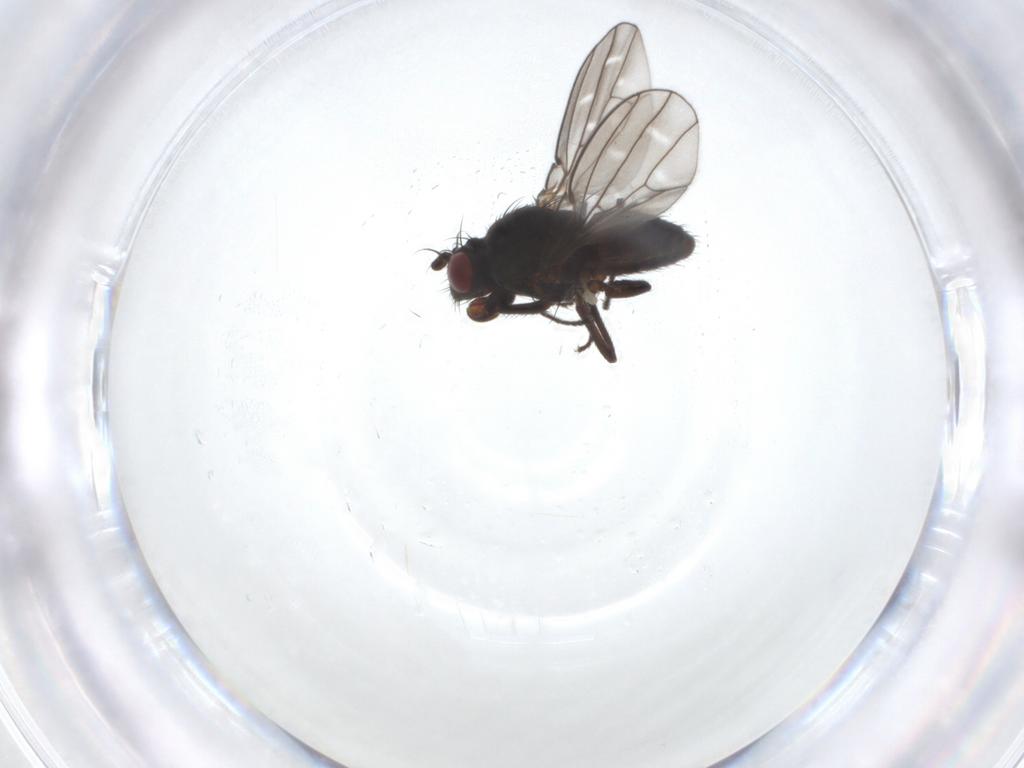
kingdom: Animalia
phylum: Arthropoda
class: Insecta
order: Diptera
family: Ephydridae
